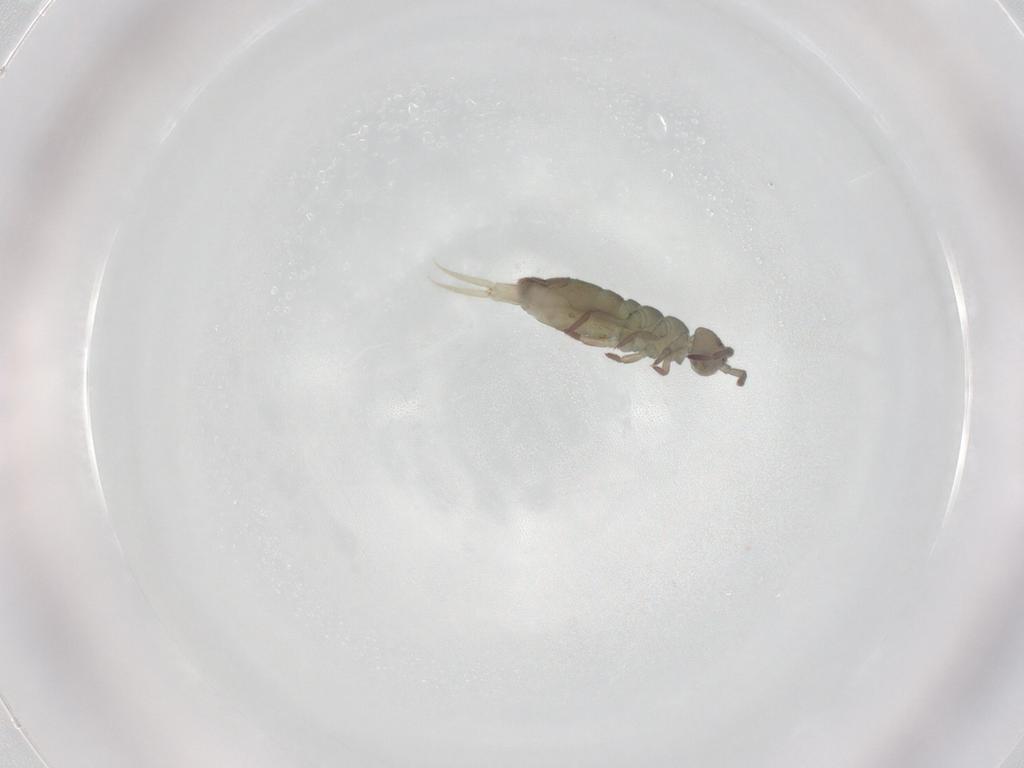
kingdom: Animalia
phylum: Arthropoda
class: Collembola
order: Entomobryomorpha
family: Isotomidae
